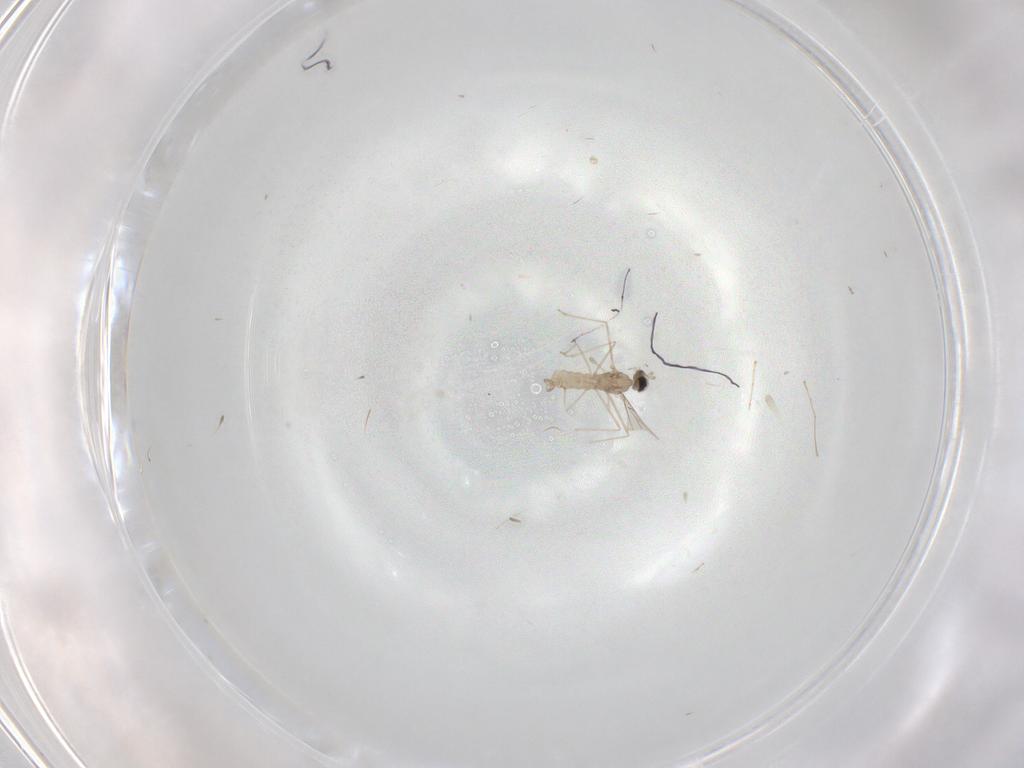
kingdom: Animalia
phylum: Arthropoda
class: Insecta
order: Diptera
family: Cecidomyiidae
